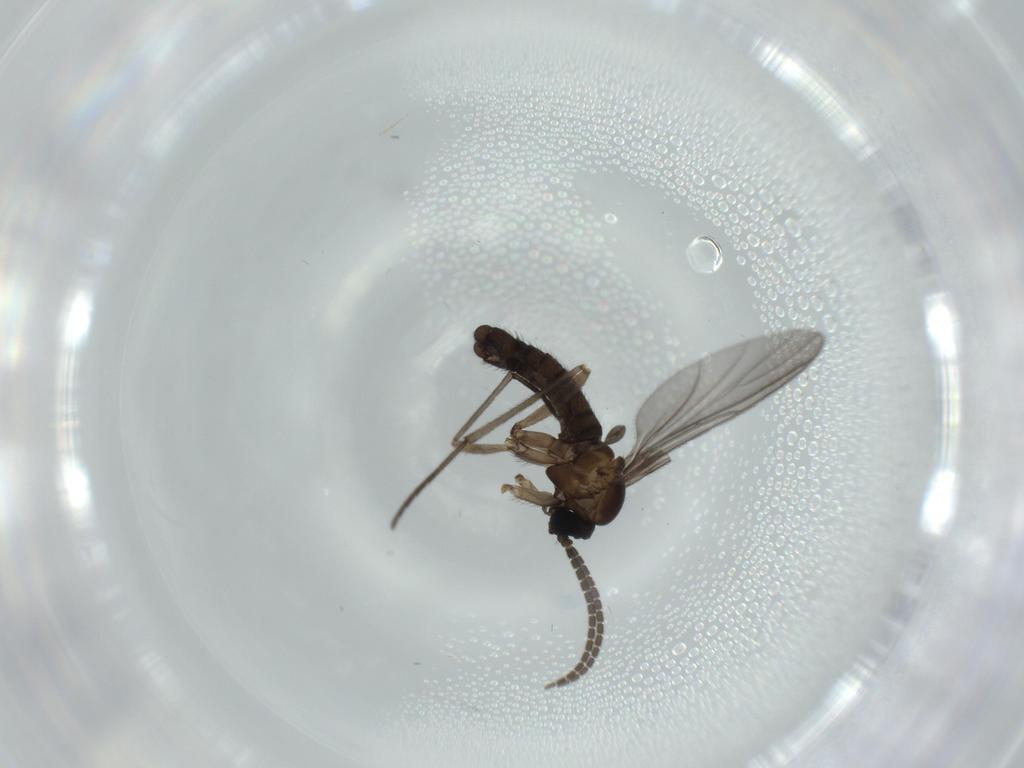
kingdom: Animalia
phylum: Arthropoda
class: Insecta
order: Diptera
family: Sciaridae
